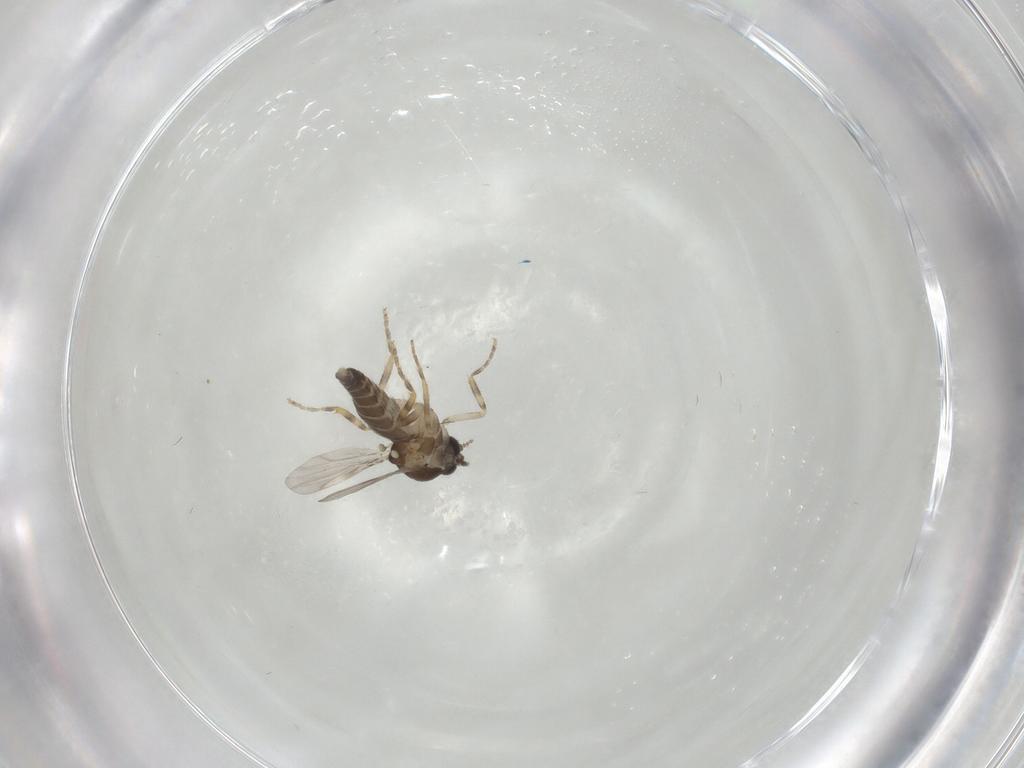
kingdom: Animalia
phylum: Arthropoda
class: Insecta
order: Diptera
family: Ceratopogonidae
